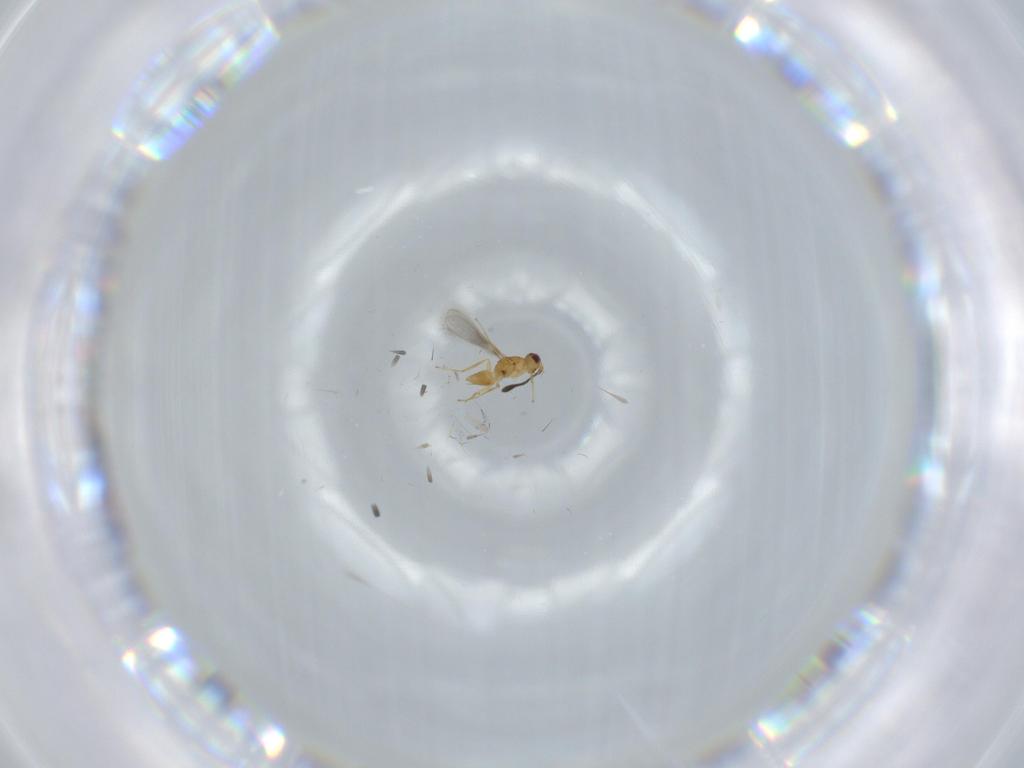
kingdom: Animalia
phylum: Arthropoda
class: Insecta
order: Hymenoptera
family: Mymaridae
